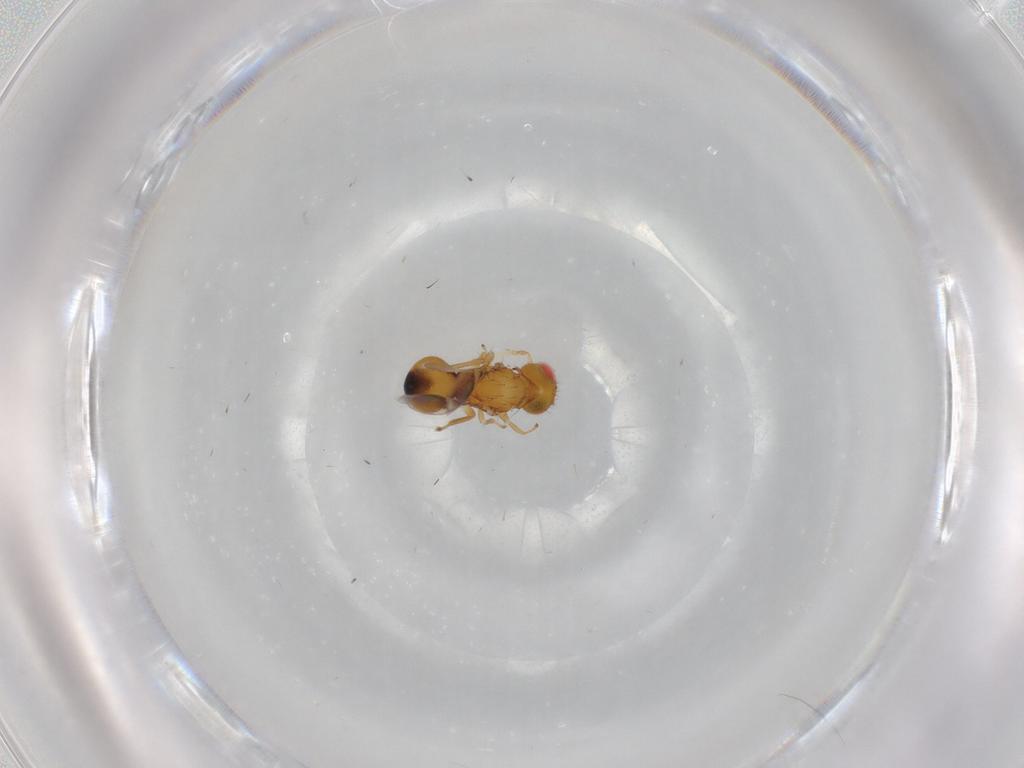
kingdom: Animalia
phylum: Arthropoda
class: Insecta
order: Hymenoptera
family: Eulophidae
